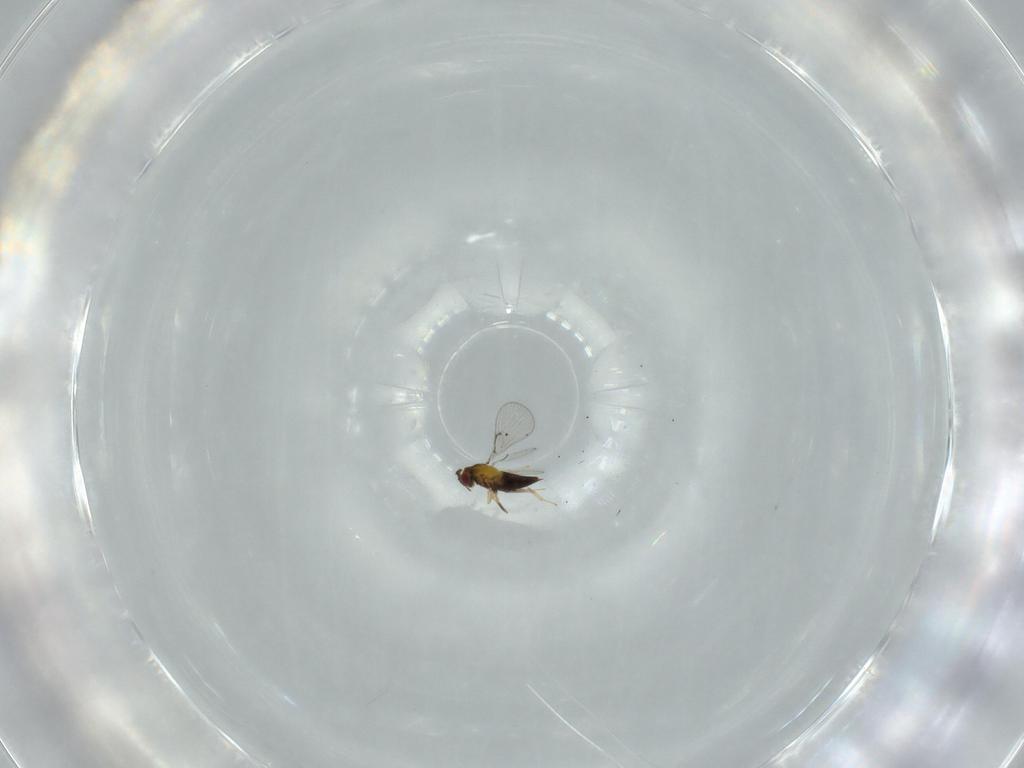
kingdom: Animalia
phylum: Arthropoda
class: Insecta
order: Hymenoptera
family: Trichogrammatidae
